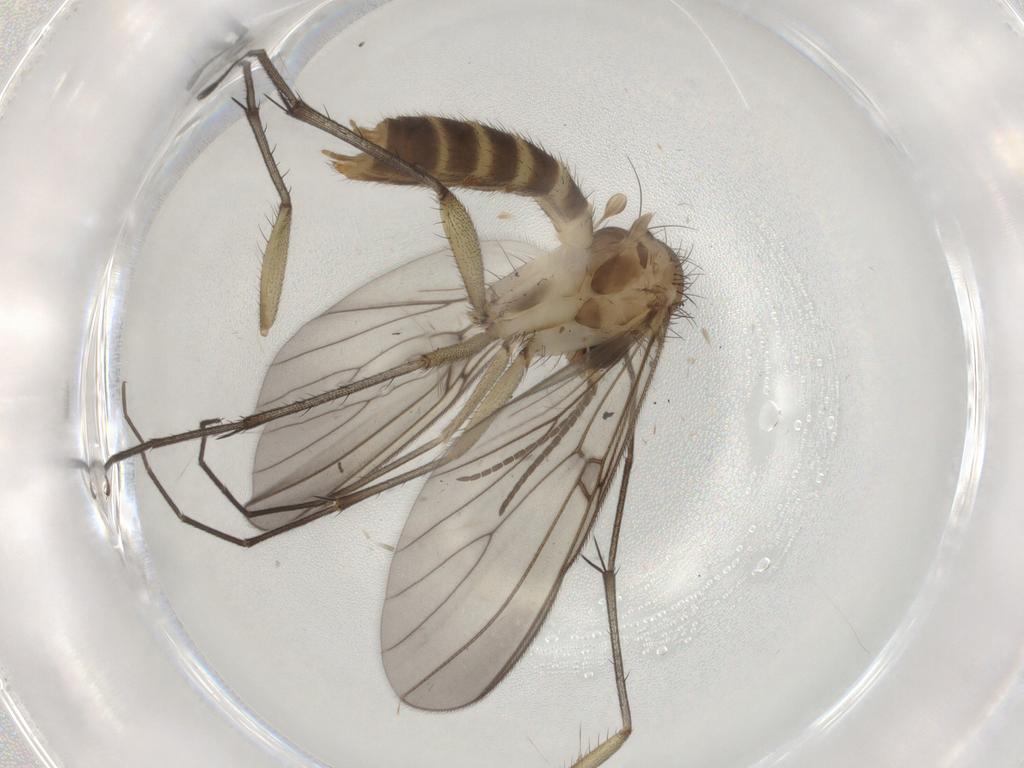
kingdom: Animalia
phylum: Arthropoda
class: Insecta
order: Diptera
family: Mycetophilidae
